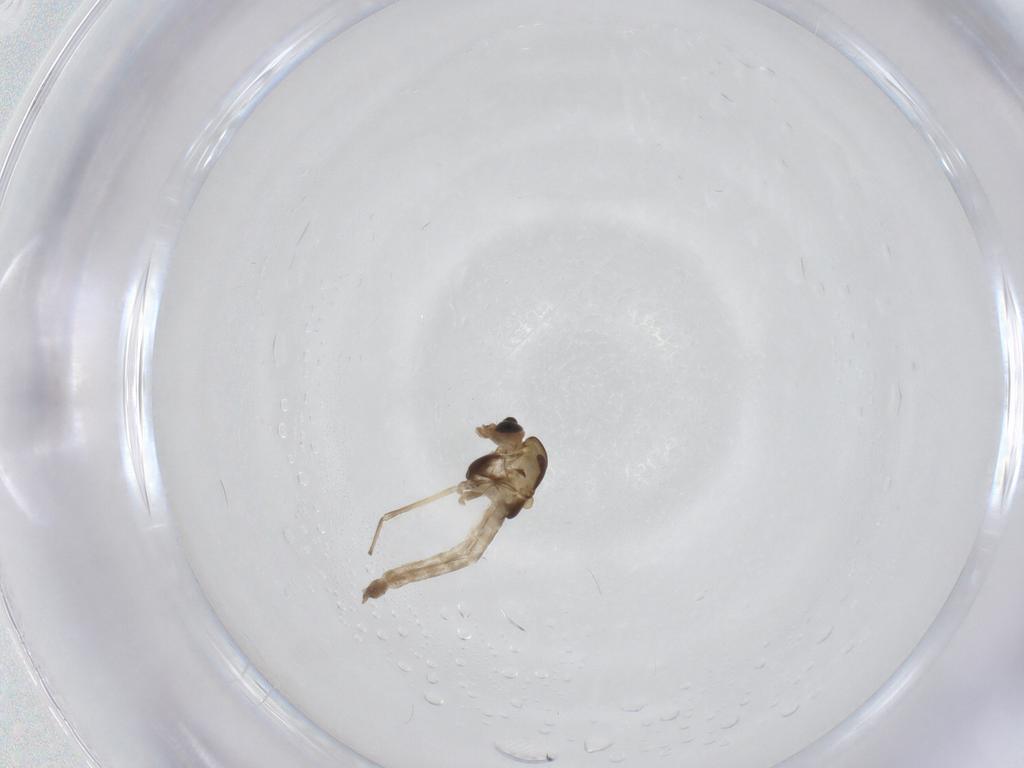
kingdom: Animalia
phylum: Arthropoda
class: Insecta
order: Diptera
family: Chironomidae
